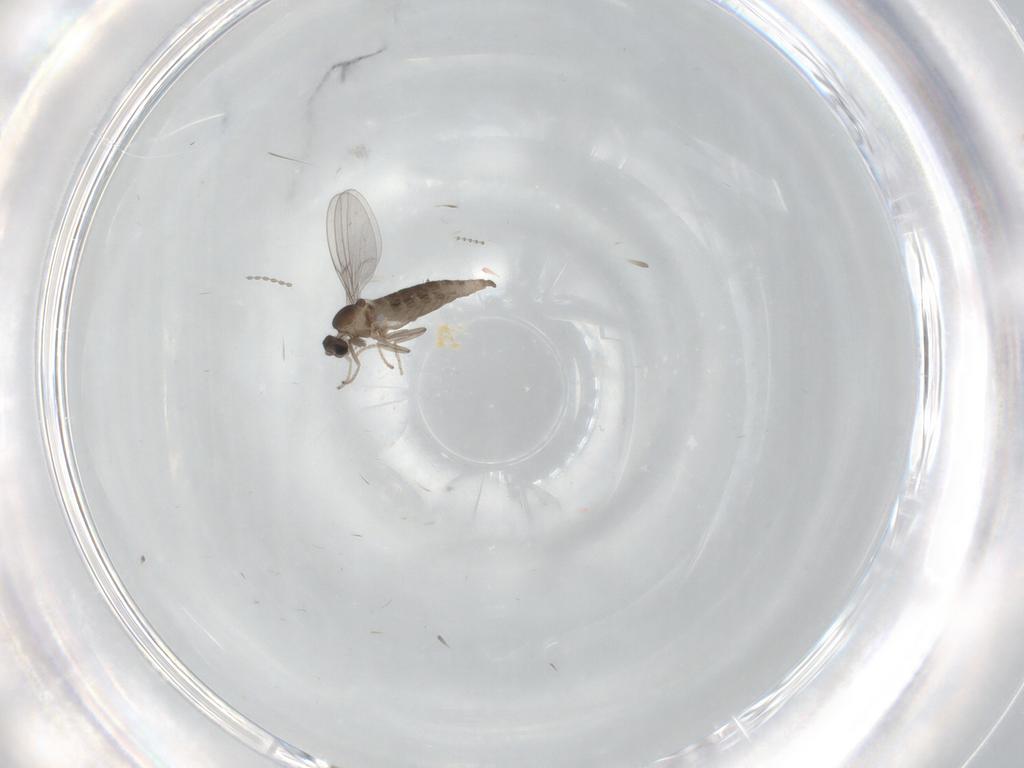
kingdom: Animalia
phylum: Arthropoda
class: Insecta
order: Diptera
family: Cecidomyiidae
